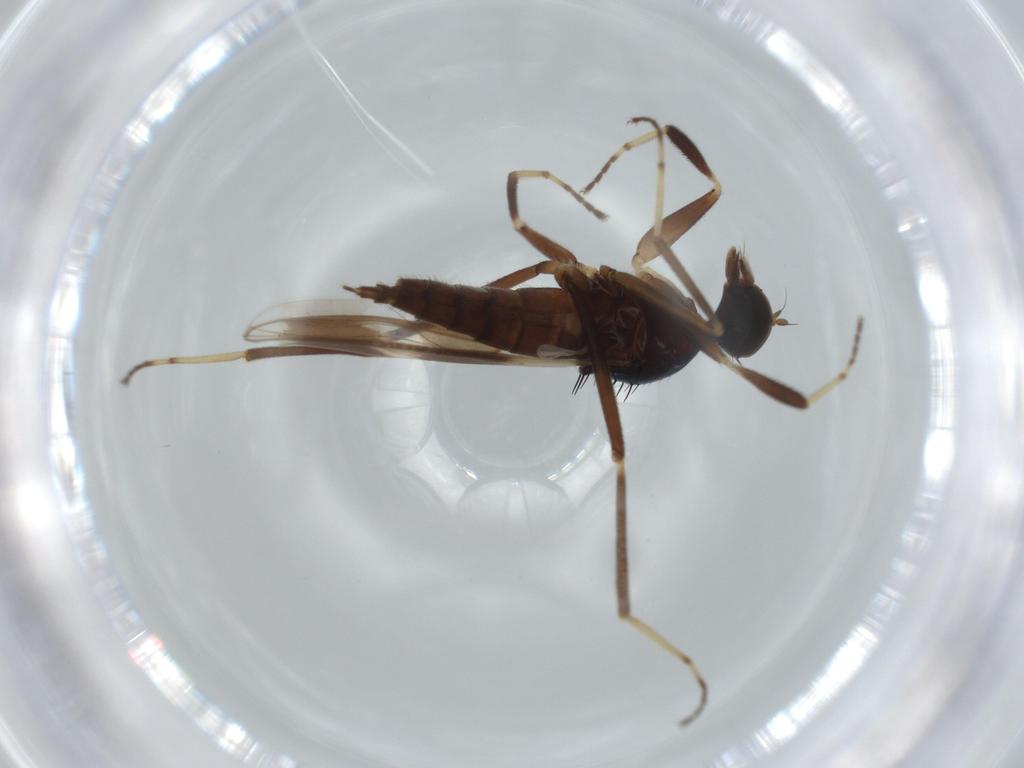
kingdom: Animalia
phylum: Arthropoda
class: Insecta
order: Diptera
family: Hybotidae
